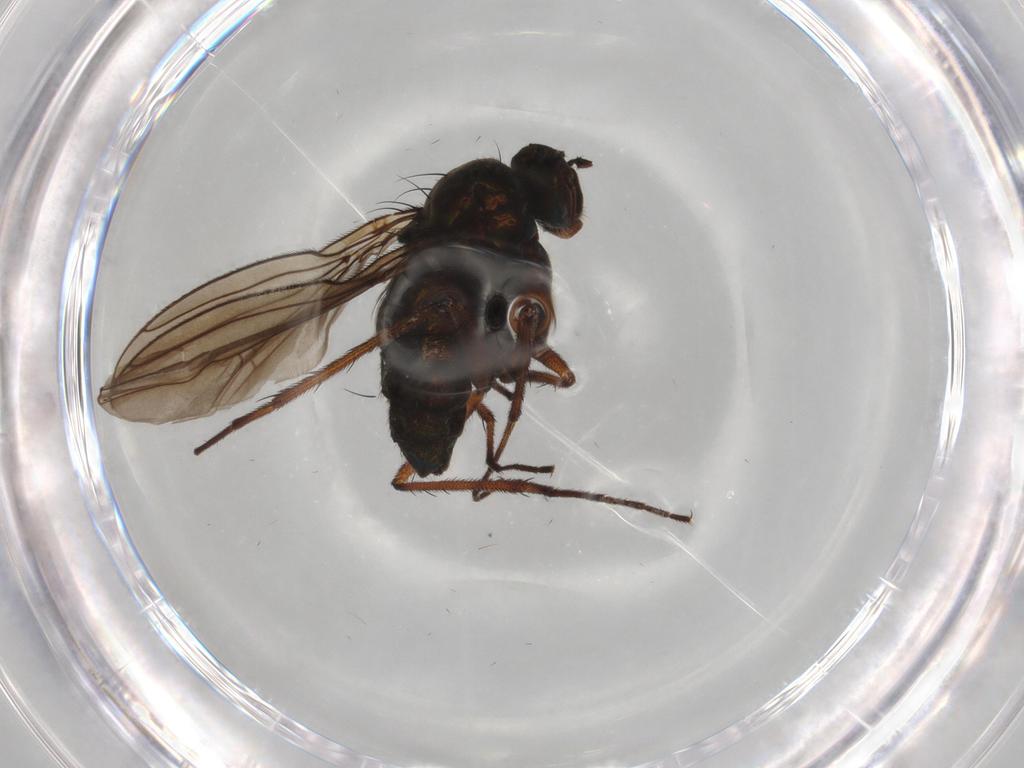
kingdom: Animalia
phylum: Arthropoda
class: Insecta
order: Diptera
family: Dolichopodidae
